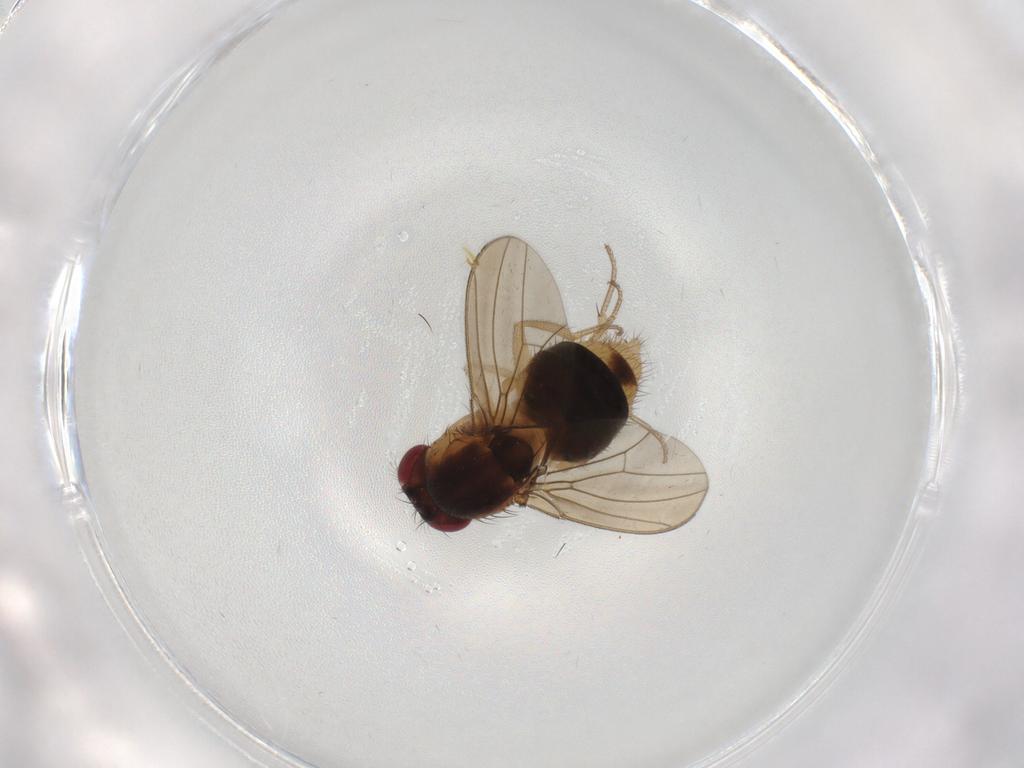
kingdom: Animalia
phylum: Arthropoda
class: Insecta
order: Diptera
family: Drosophilidae
